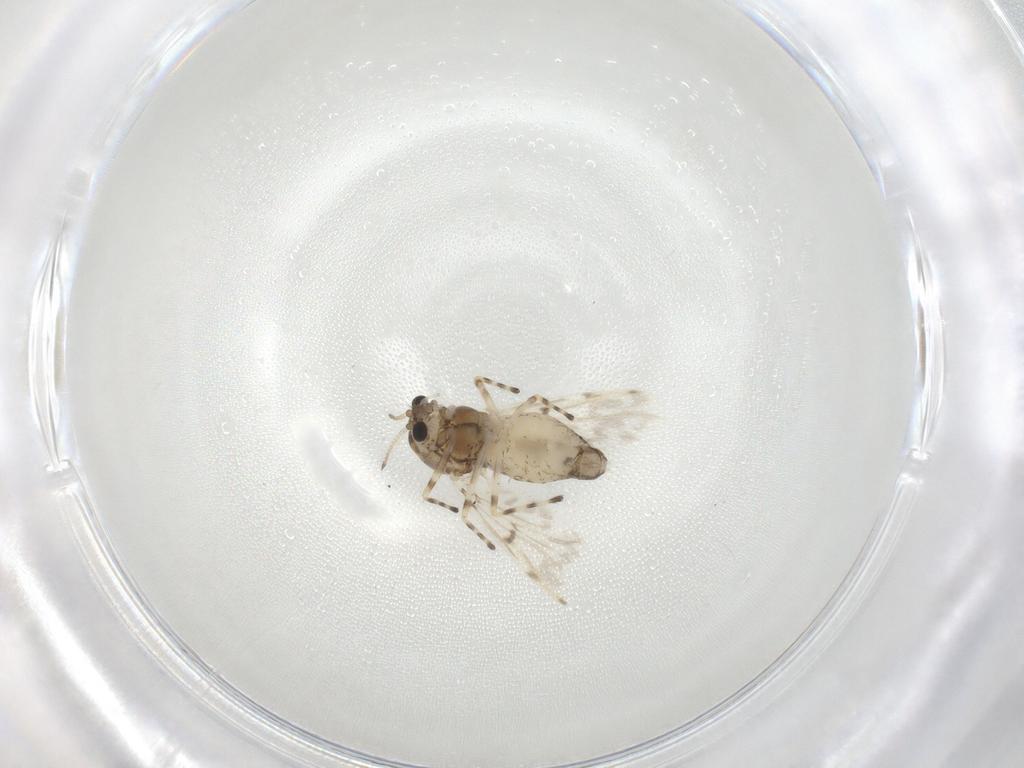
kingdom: Animalia
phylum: Arthropoda
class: Insecta
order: Diptera
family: Chironomidae
